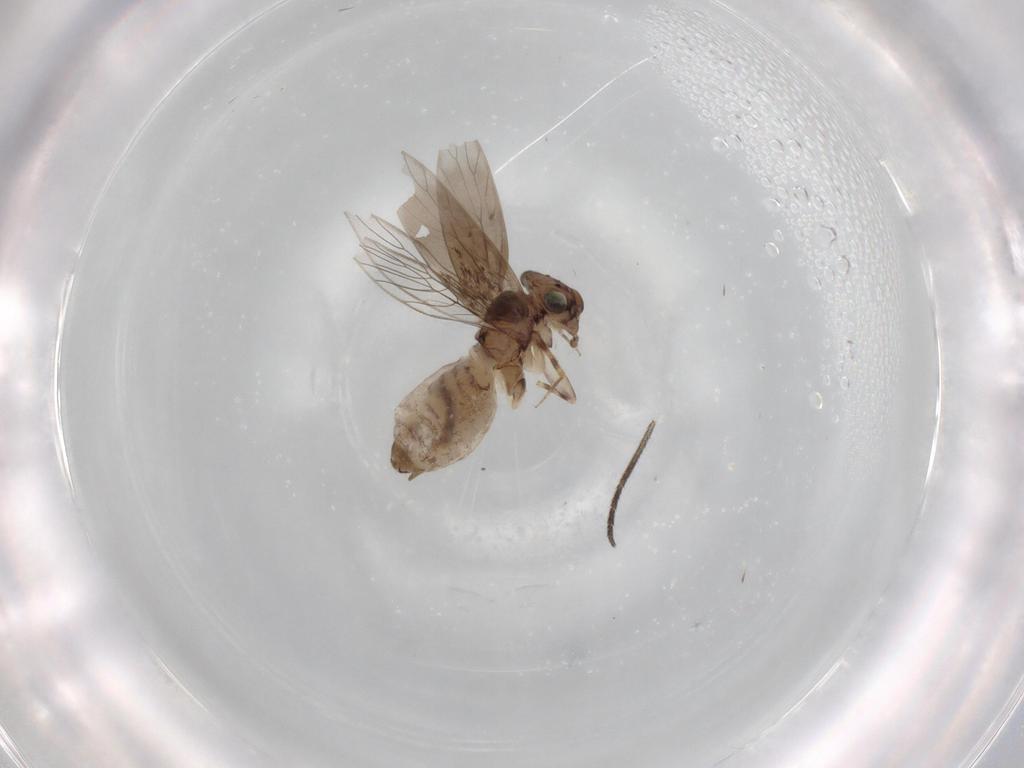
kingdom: Animalia
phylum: Arthropoda
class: Insecta
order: Psocodea
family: Lepidopsocidae
